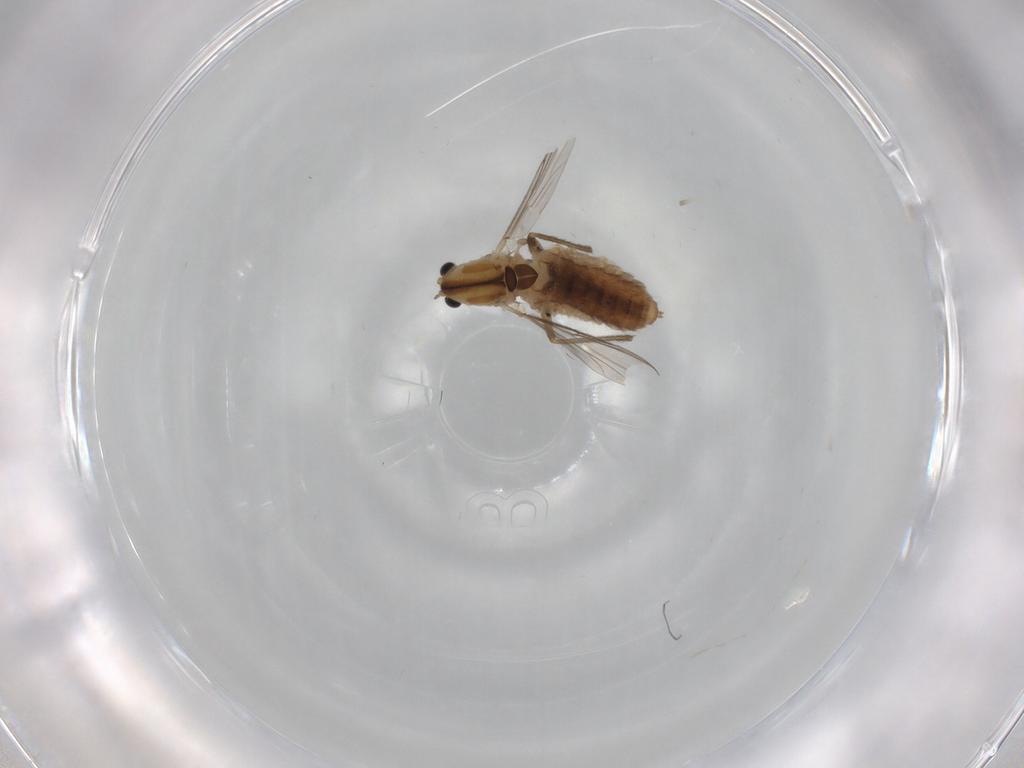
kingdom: Animalia
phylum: Arthropoda
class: Insecta
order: Diptera
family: Chironomidae
